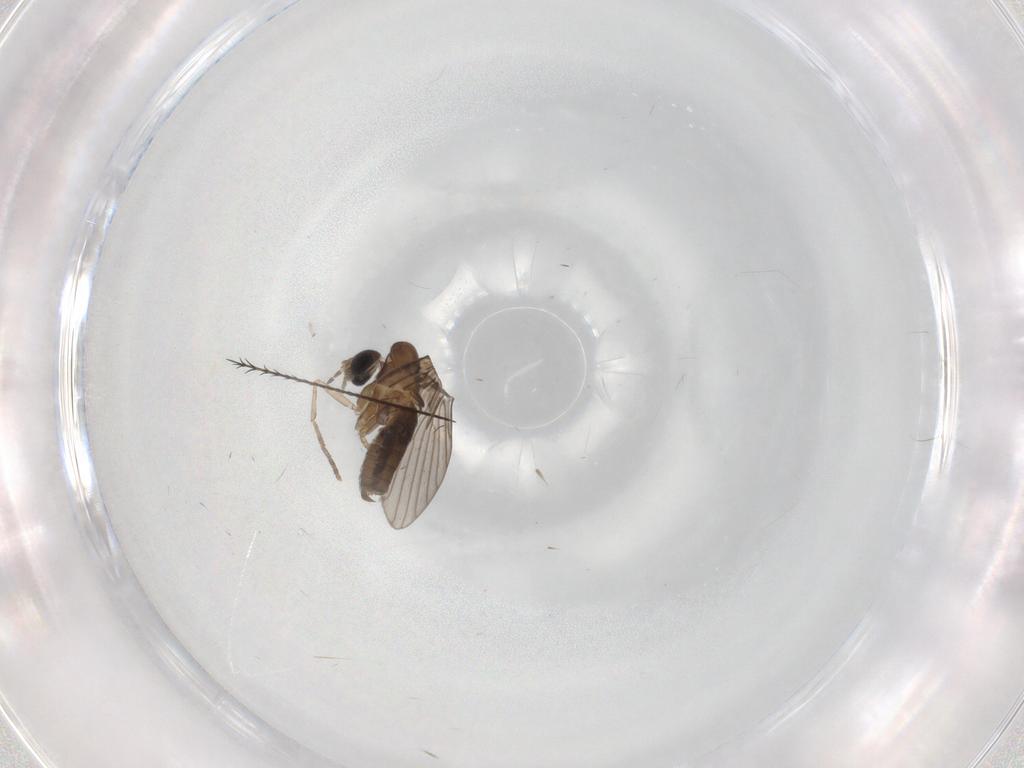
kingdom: Animalia
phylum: Arthropoda
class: Insecta
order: Diptera
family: Psychodidae
